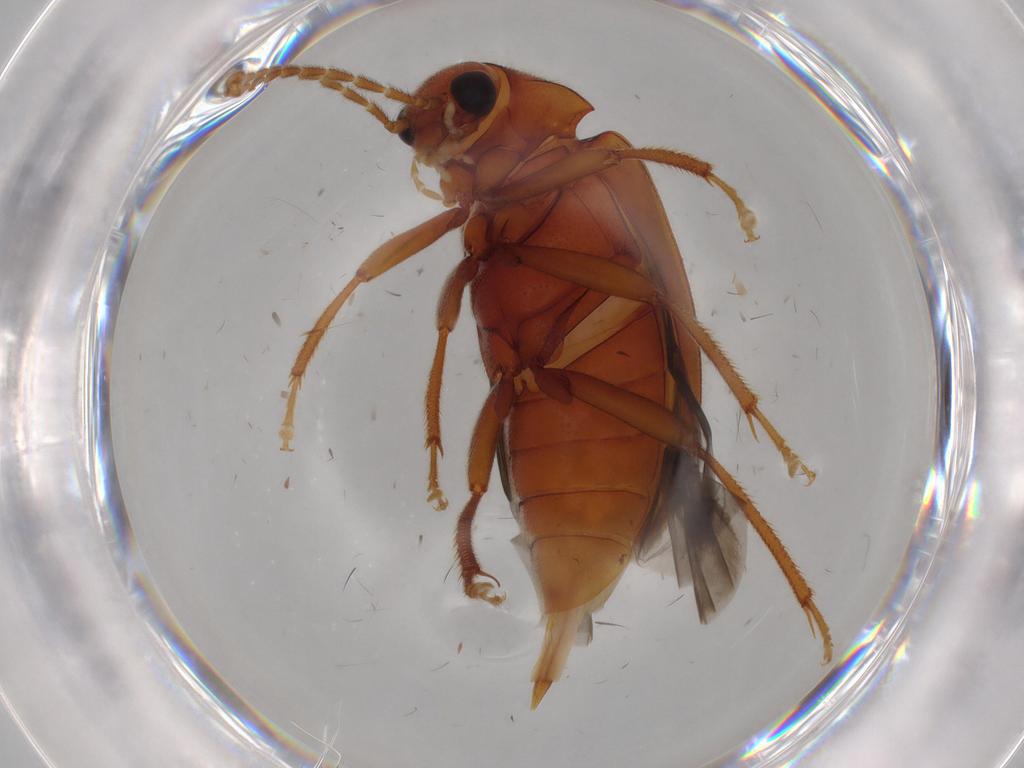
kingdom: Animalia
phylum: Arthropoda
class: Insecta
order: Coleoptera
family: Ptilodactylidae
